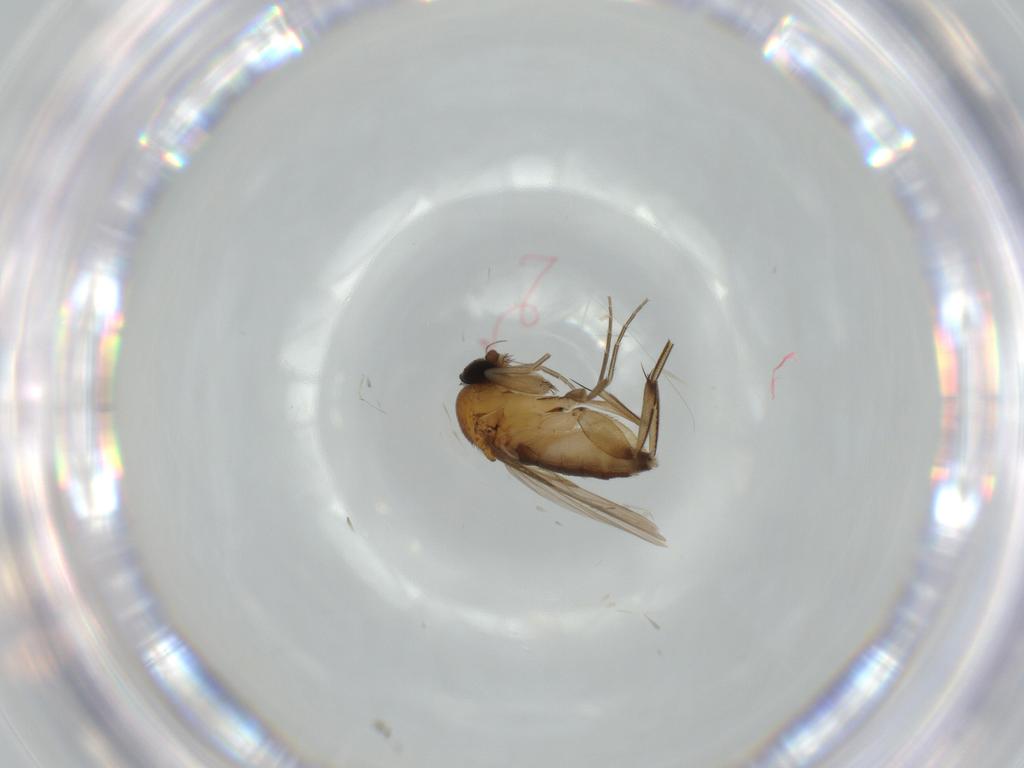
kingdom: Animalia
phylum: Arthropoda
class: Insecta
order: Diptera
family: Phoridae
